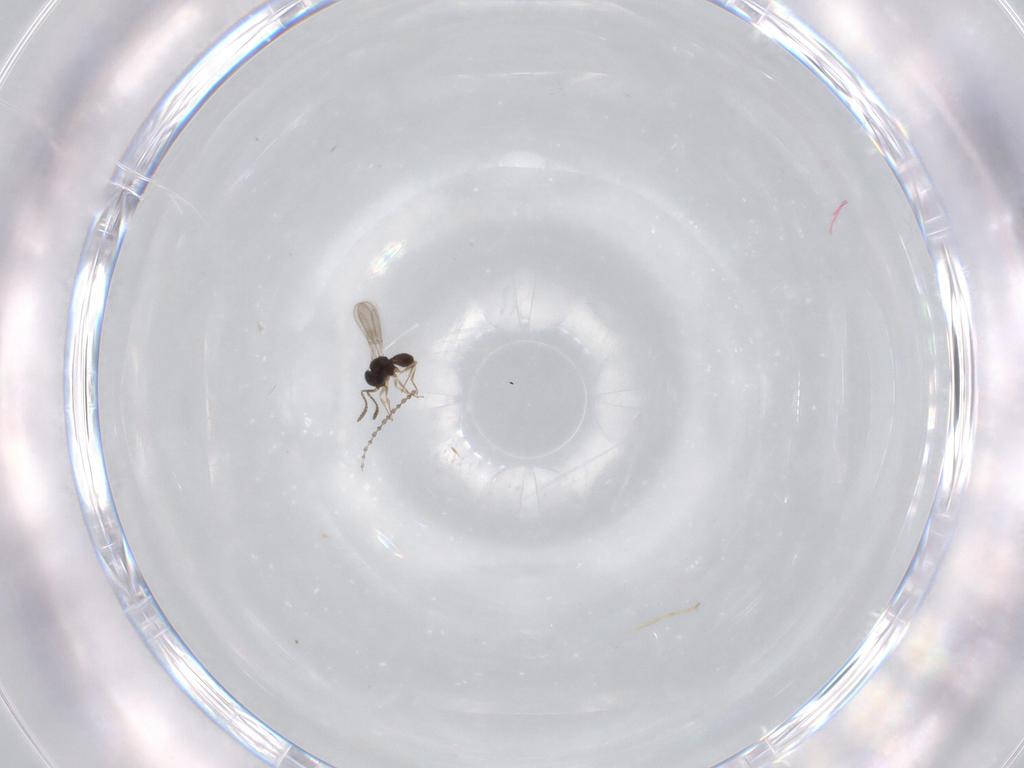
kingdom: Animalia
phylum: Arthropoda
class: Insecta
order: Hymenoptera
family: Scelionidae
